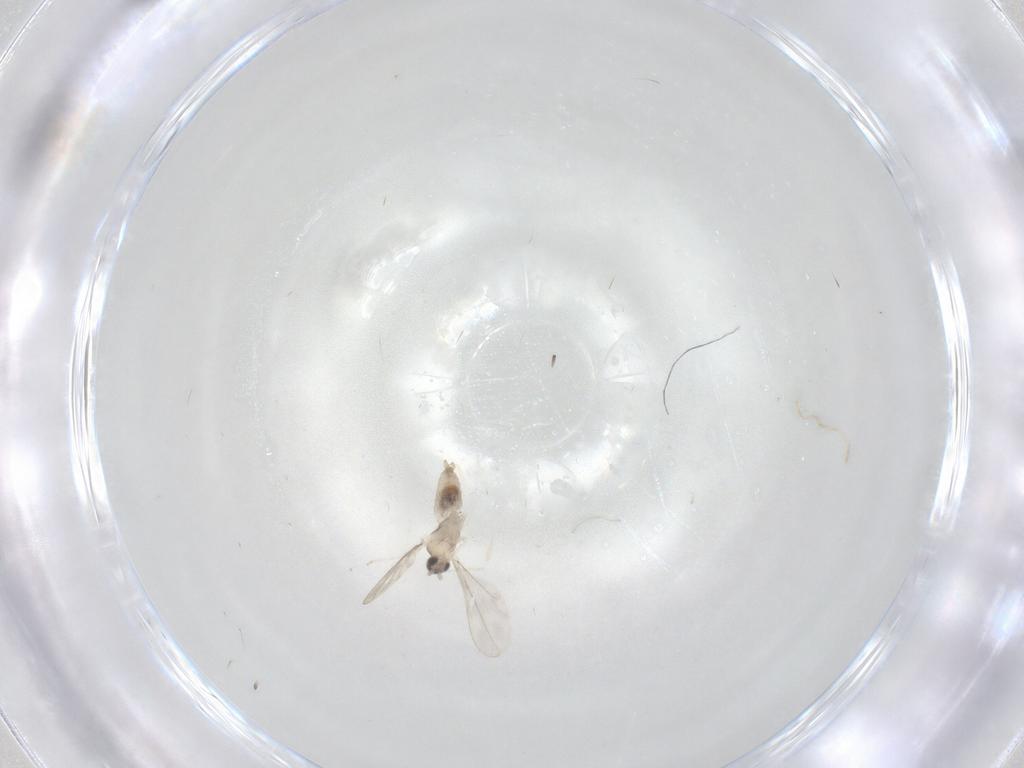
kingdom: Animalia
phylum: Arthropoda
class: Insecta
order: Diptera
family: Cecidomyiidae
